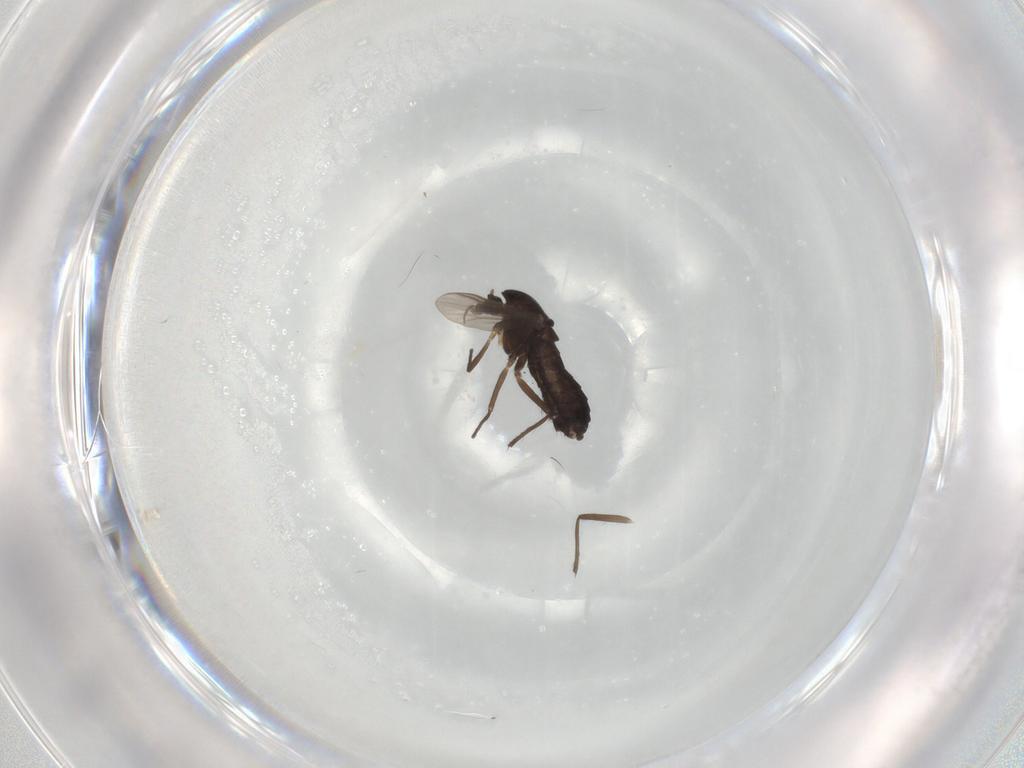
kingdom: Animalia
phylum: Arthropoda
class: Insecta
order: Diptera
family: Chironomidae
